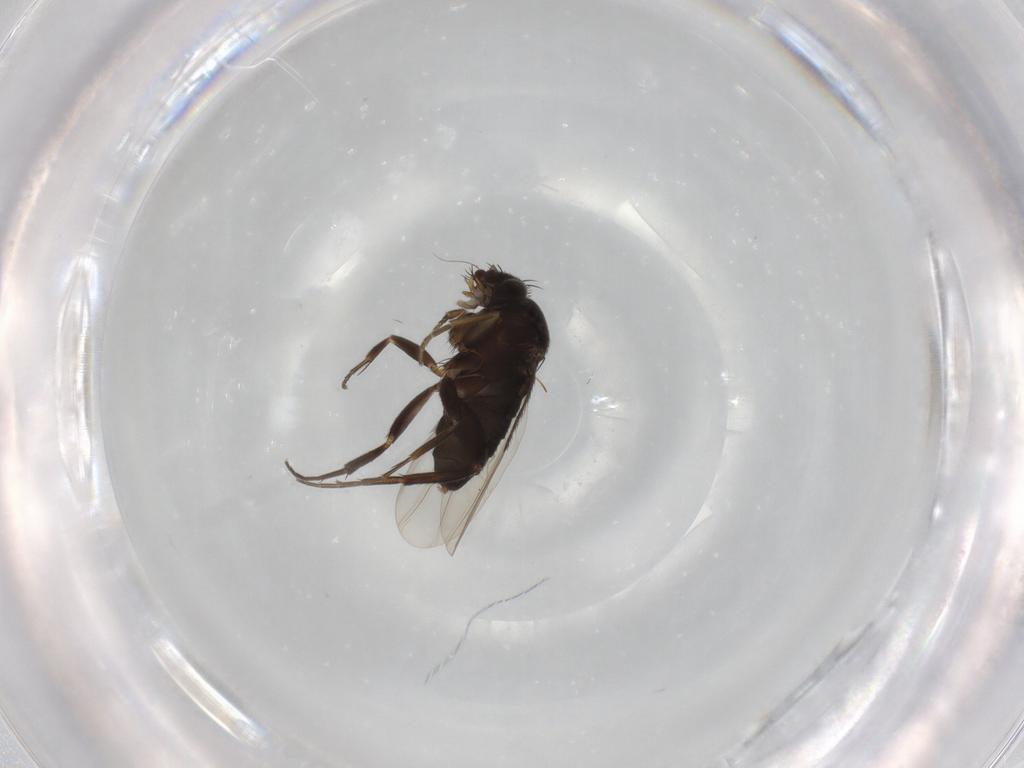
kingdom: Animalia
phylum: Arthropoda
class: Insecta
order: Diptera
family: Phoridae
